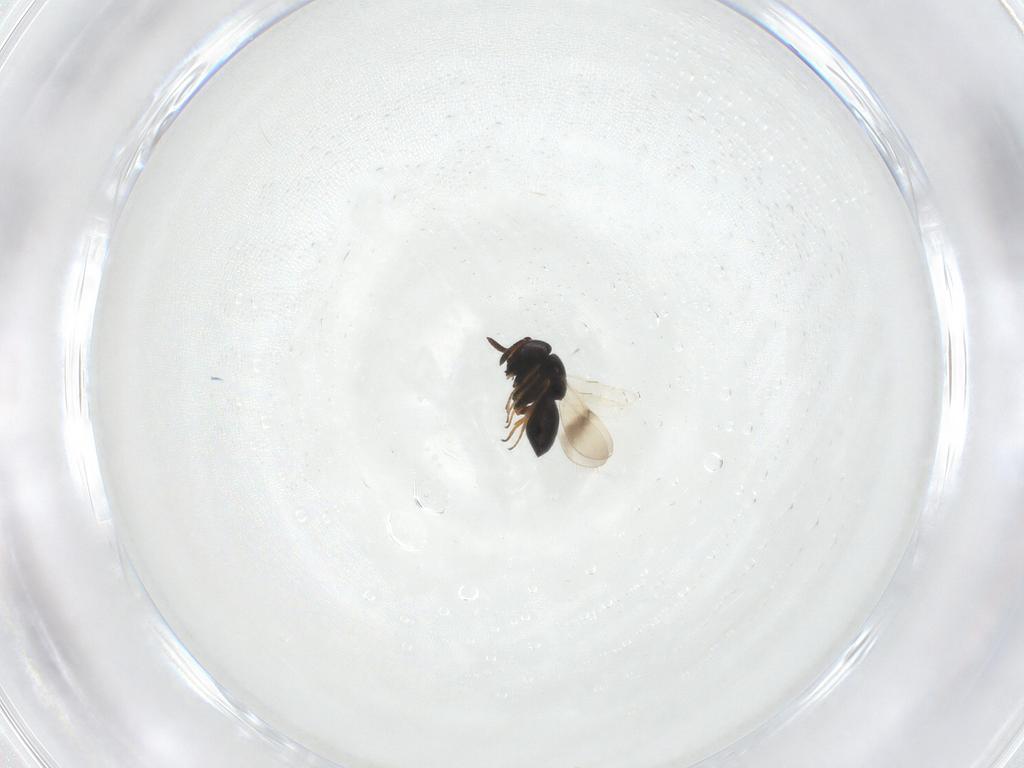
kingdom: Animalia
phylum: Arthropoda
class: Insecta
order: Hymenoptera
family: Scelionidae
